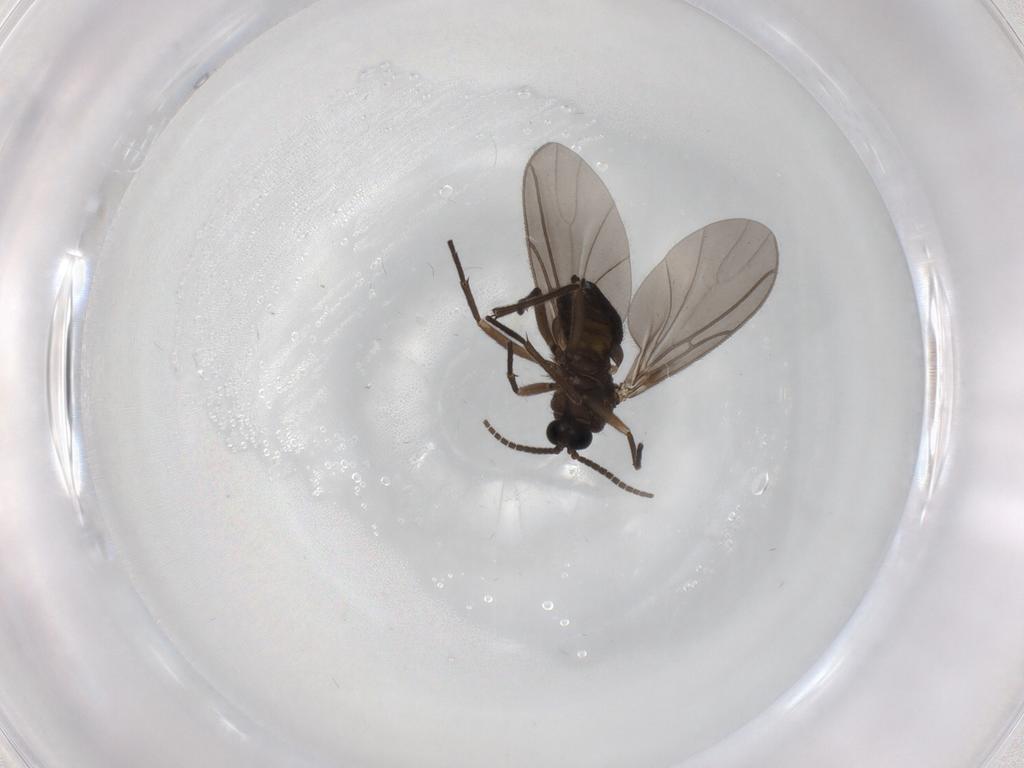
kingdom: Animalia
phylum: Arthropoda
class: Insecta
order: Diptera
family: Sciaridae
